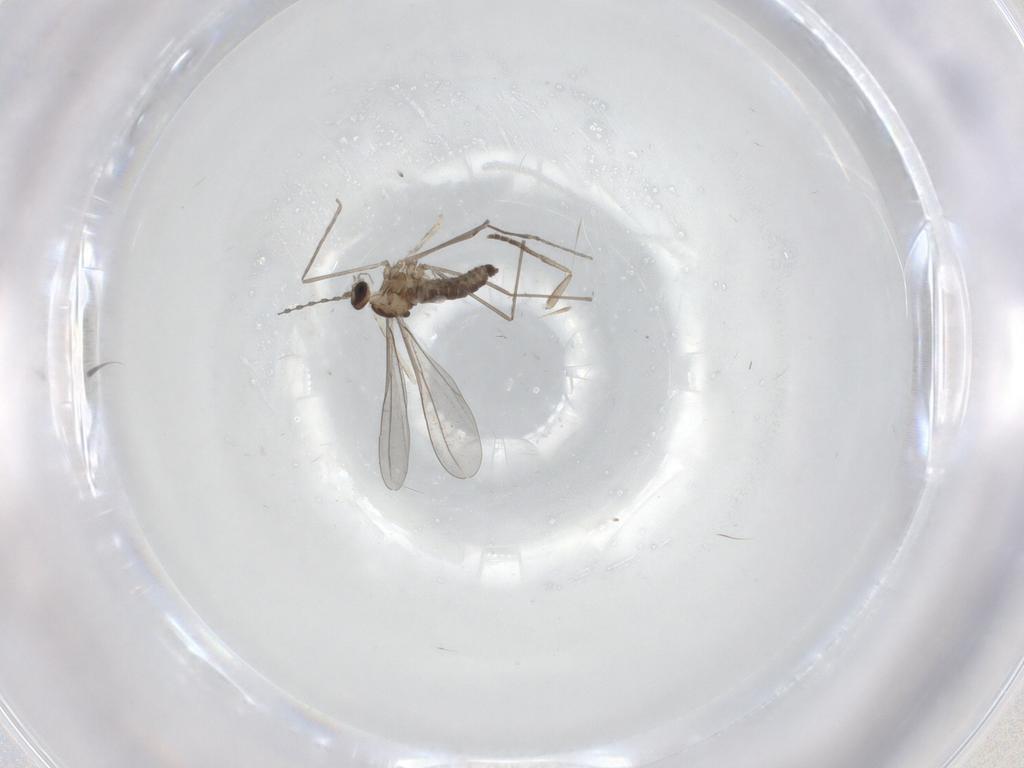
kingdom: Animalia
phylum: Arthropoda
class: Insecta
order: Diptera
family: Cecidomyiidae
